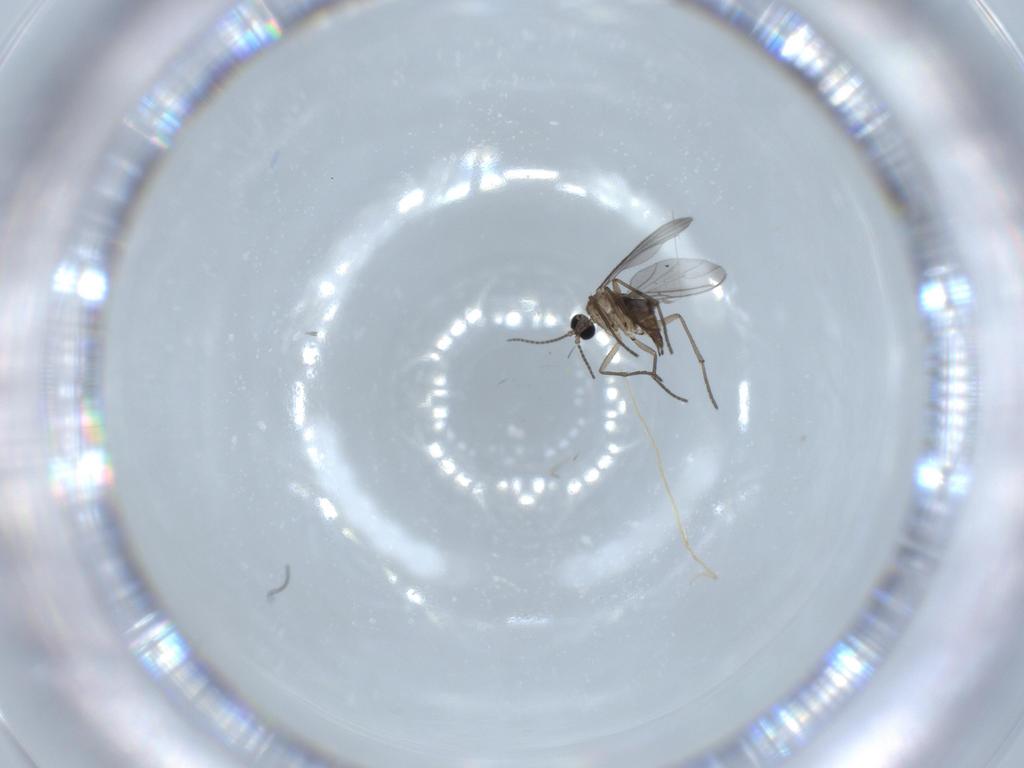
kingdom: Animalia
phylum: Arthropoda
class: Insecta
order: Diptera
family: Sciaridae
